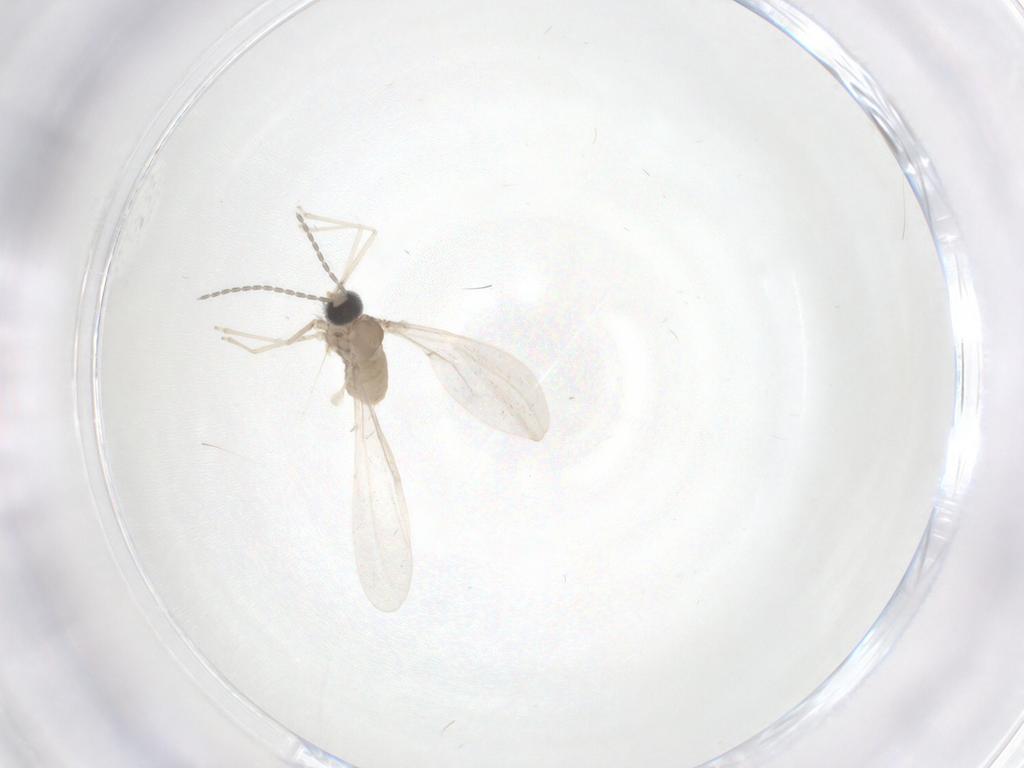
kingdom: Animalia
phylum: Arthropoda
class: Insecta
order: Diptera
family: Cecidomyiidae
